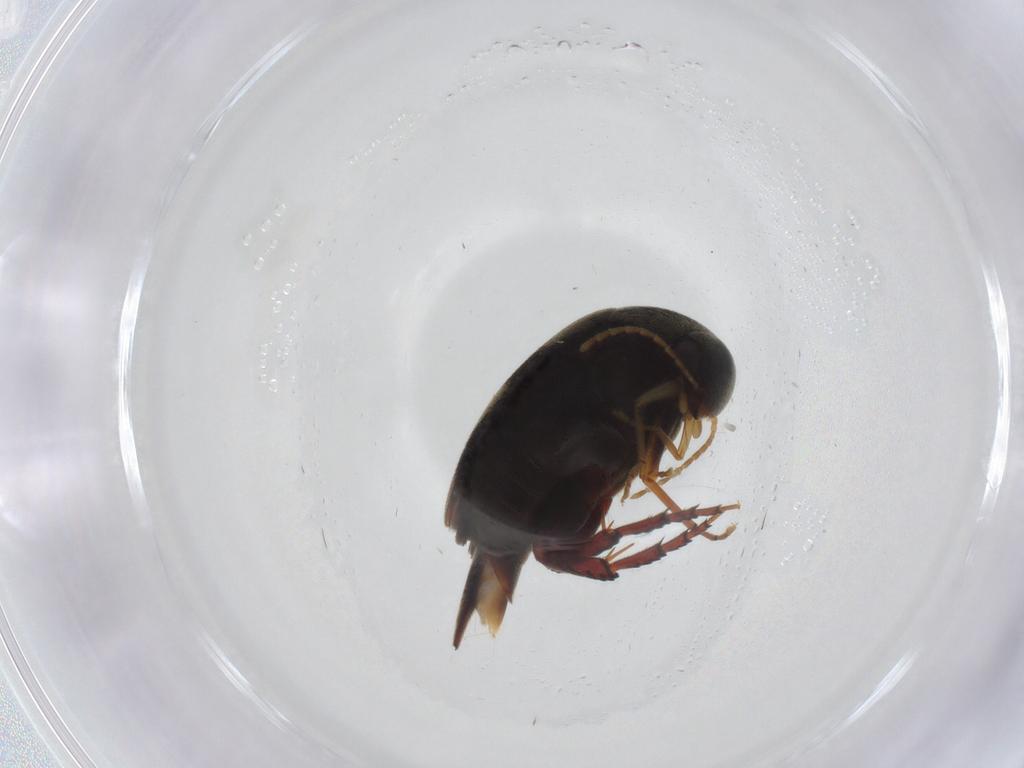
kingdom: Animalia
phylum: Arthropoda
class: Insecta
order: Coleoptera
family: Mordellidae
